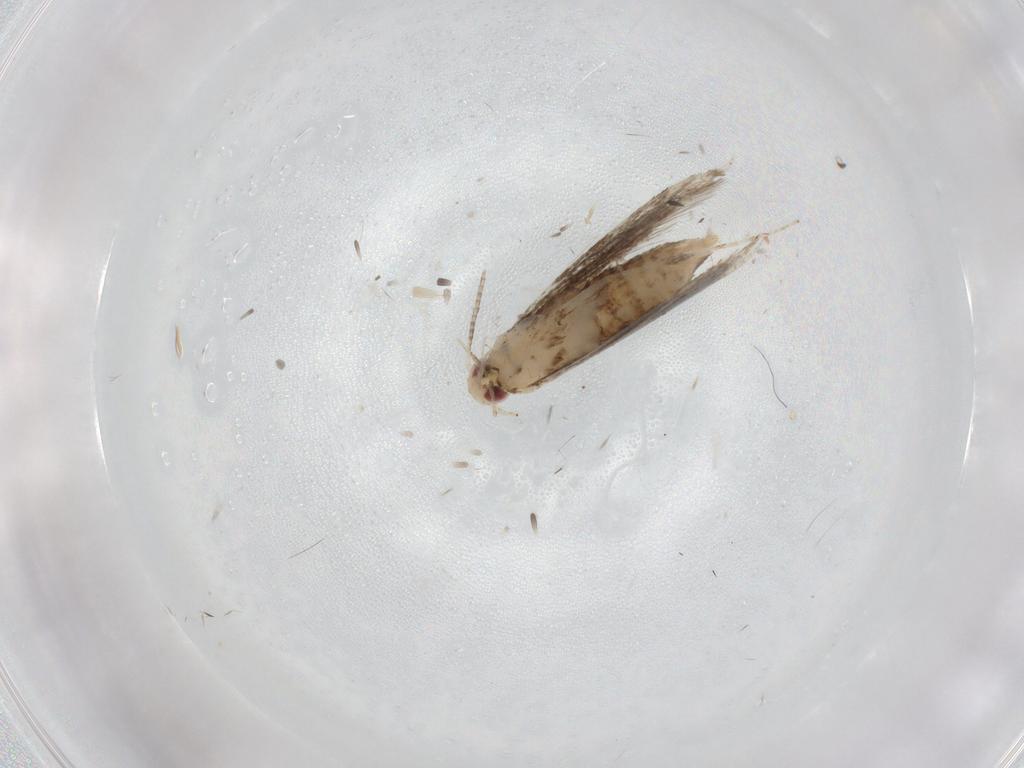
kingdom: Animalia
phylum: Arthropoda
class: Insecta
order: Lepidoptera
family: Gracillariidae
